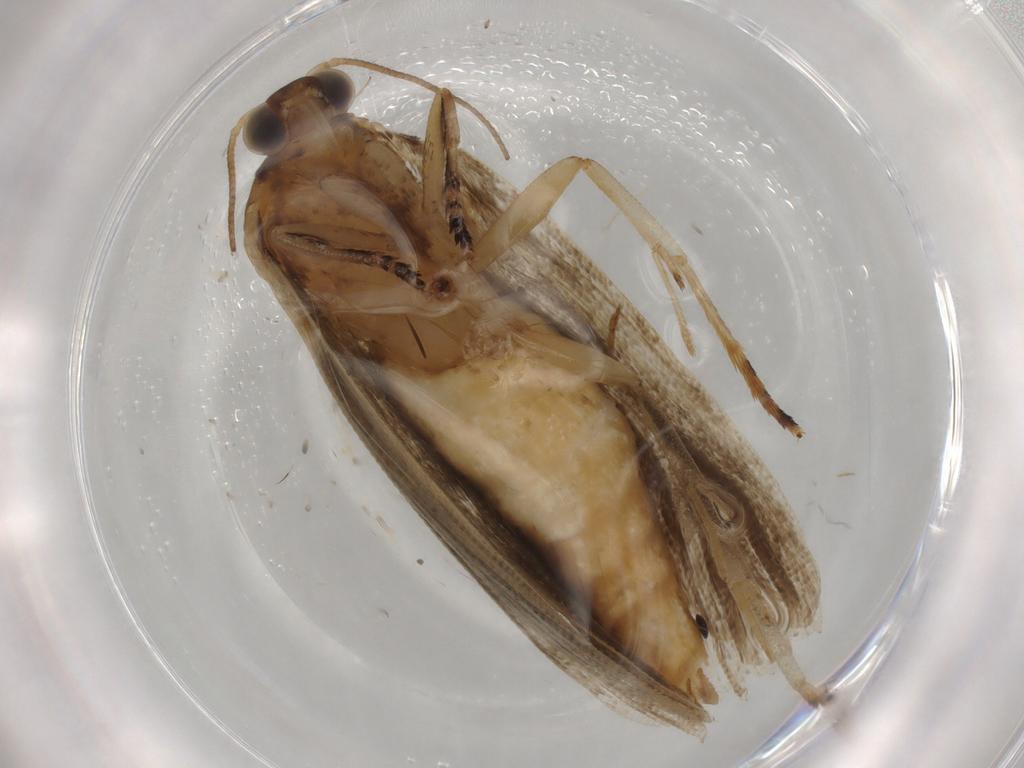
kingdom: Animalia
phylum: Arthropoda
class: Insecta
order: Lepidoptera
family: Tortricidae
